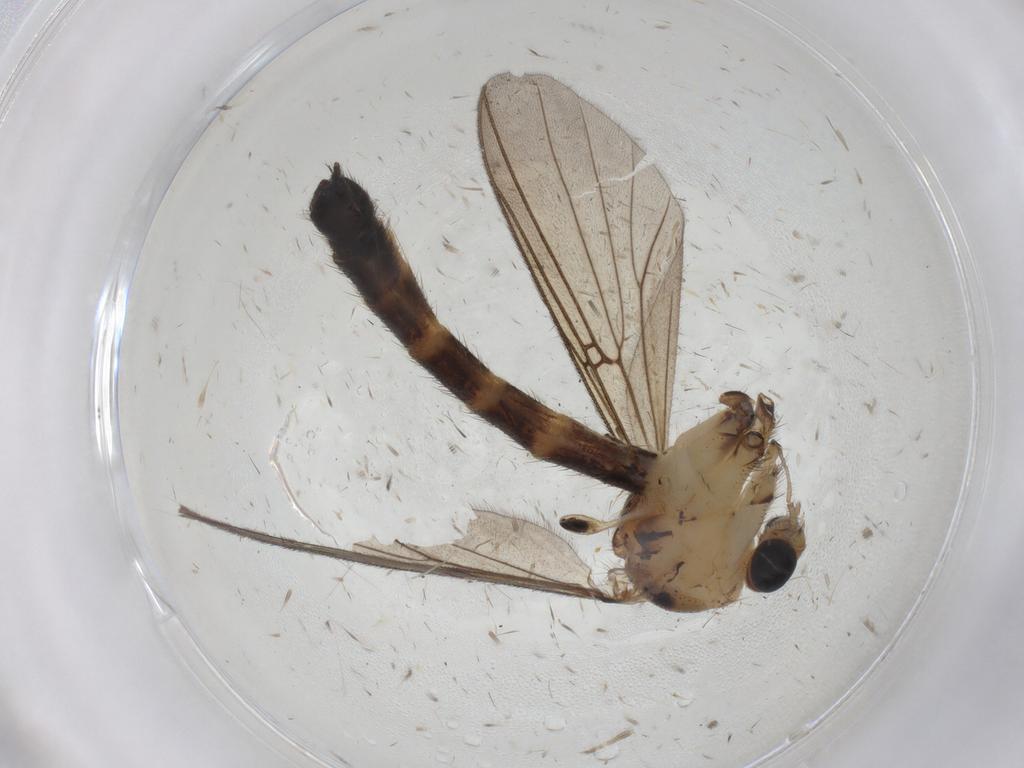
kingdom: Animalia
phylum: Arthropoda
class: Insecta
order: Diptera
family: Mycetophilidae
